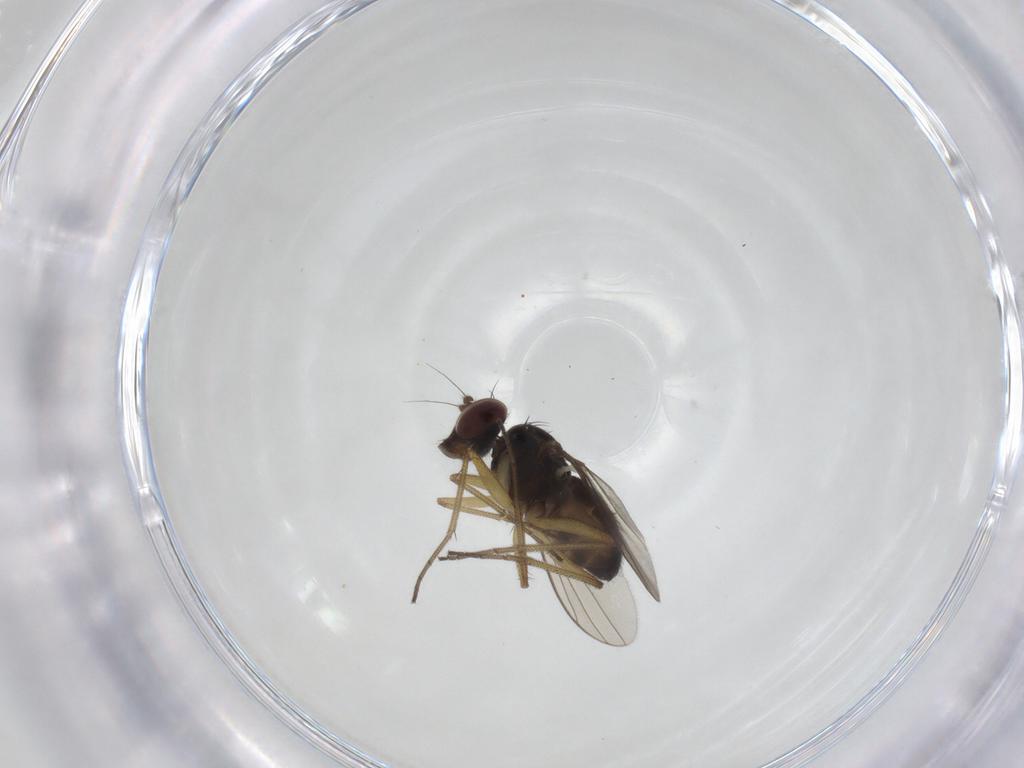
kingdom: Animalia
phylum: Arthropoda
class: Insecta
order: Diptera
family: Dolichopodidae
